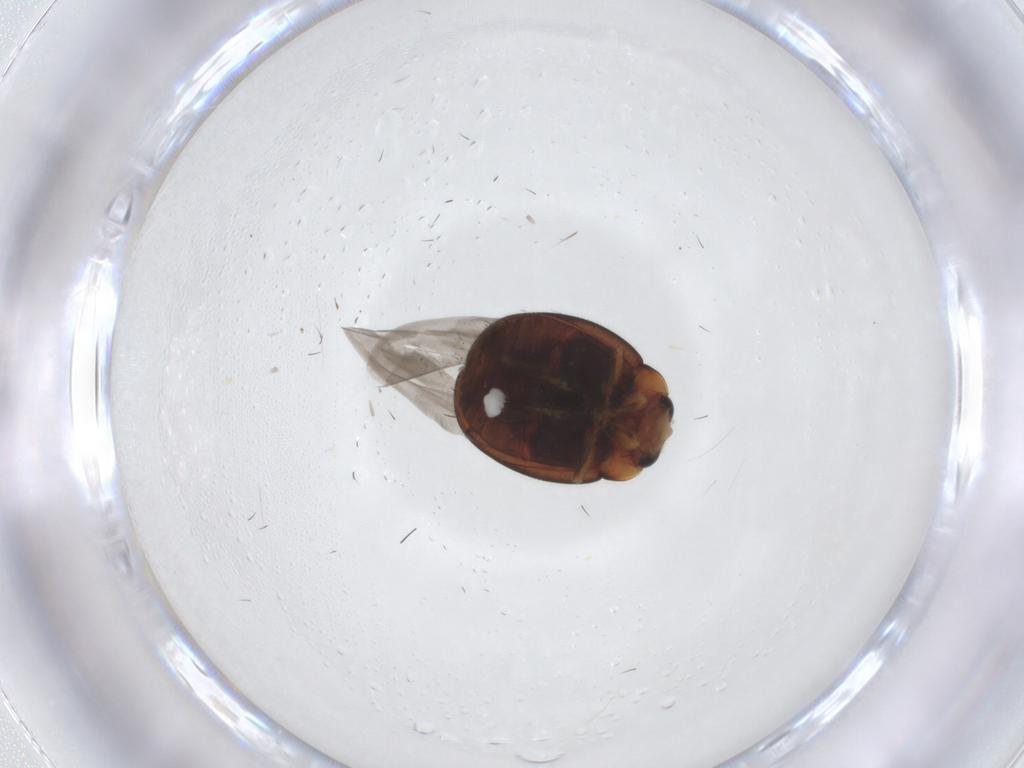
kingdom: Animalia
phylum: Arthropoda
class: Insecta
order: Coleoptera
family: Coccinellidae
